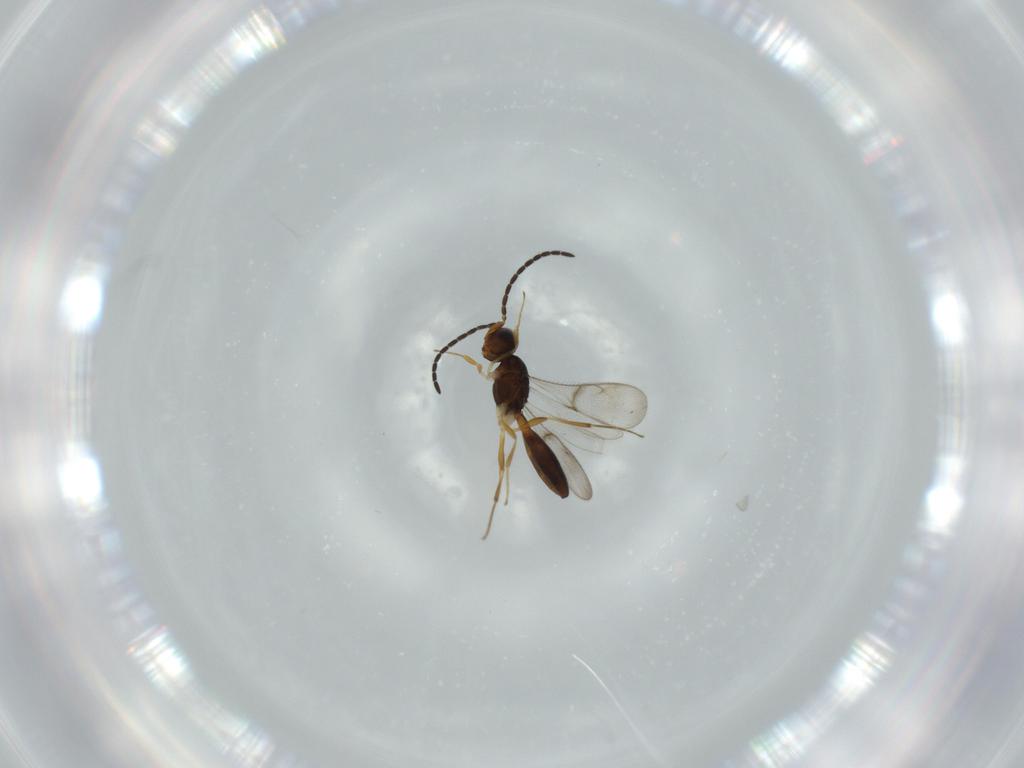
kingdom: Animalia
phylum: Arthropoda
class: Insecta
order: Hymenoptera
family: Scelionidae
